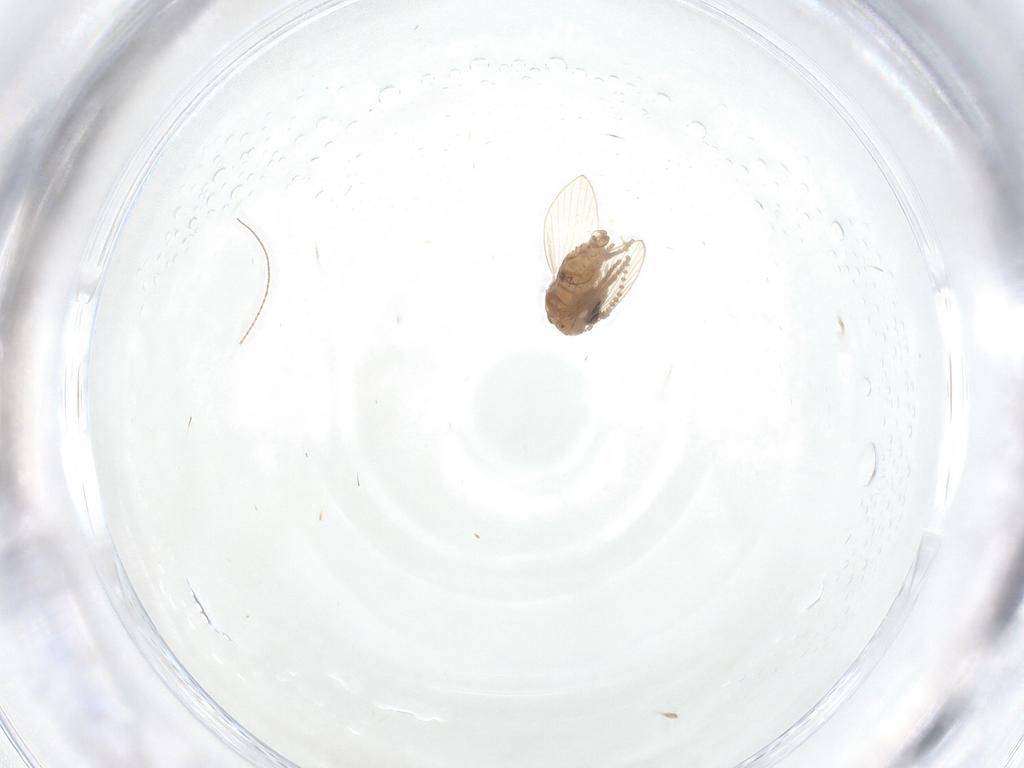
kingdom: Animalia
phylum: Arthropoda
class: Insecta
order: Diptera
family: Psychodidae
